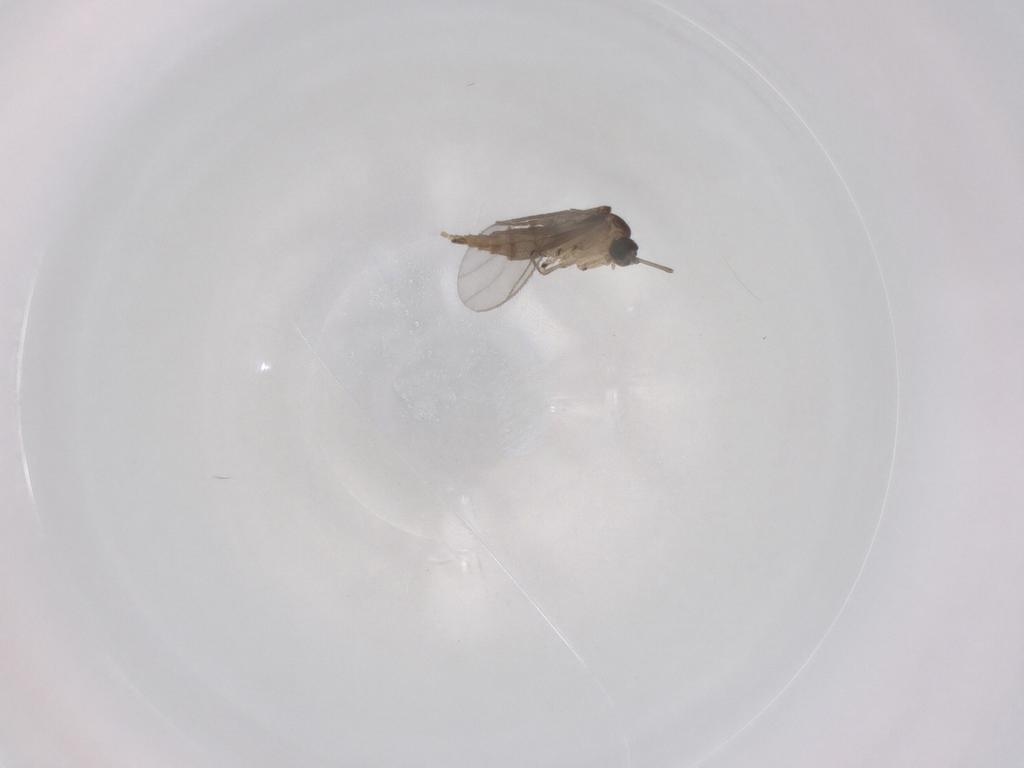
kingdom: Animalia
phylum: Arthropoda
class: Insecta
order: Diptera
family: Sciaridae
